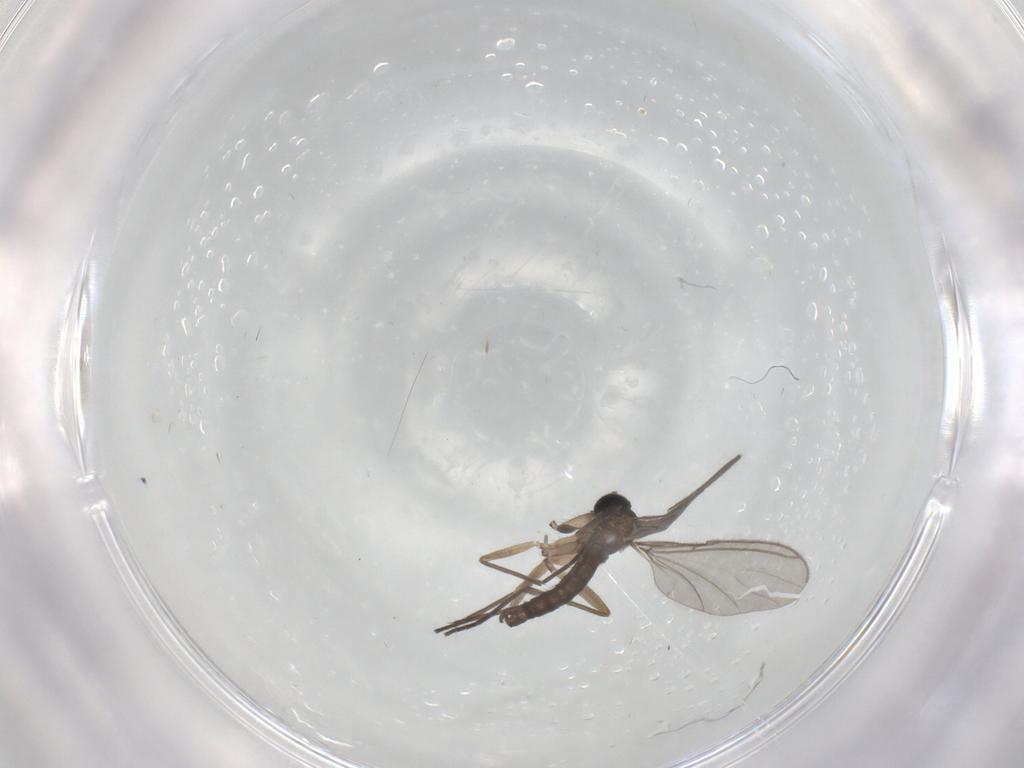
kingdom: Animalia
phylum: Arthropoda
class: Insecta
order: Diptera
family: Sciaridae
